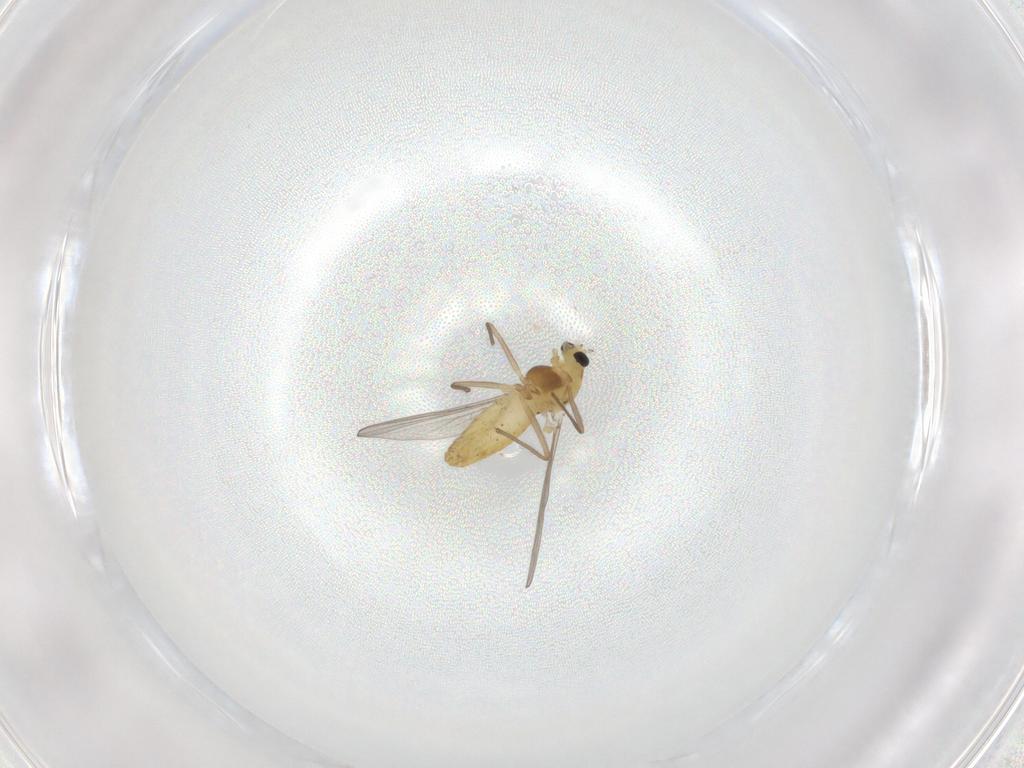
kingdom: Animalia
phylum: Arthropoda
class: Insecta
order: Diptera
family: Chironomidae
